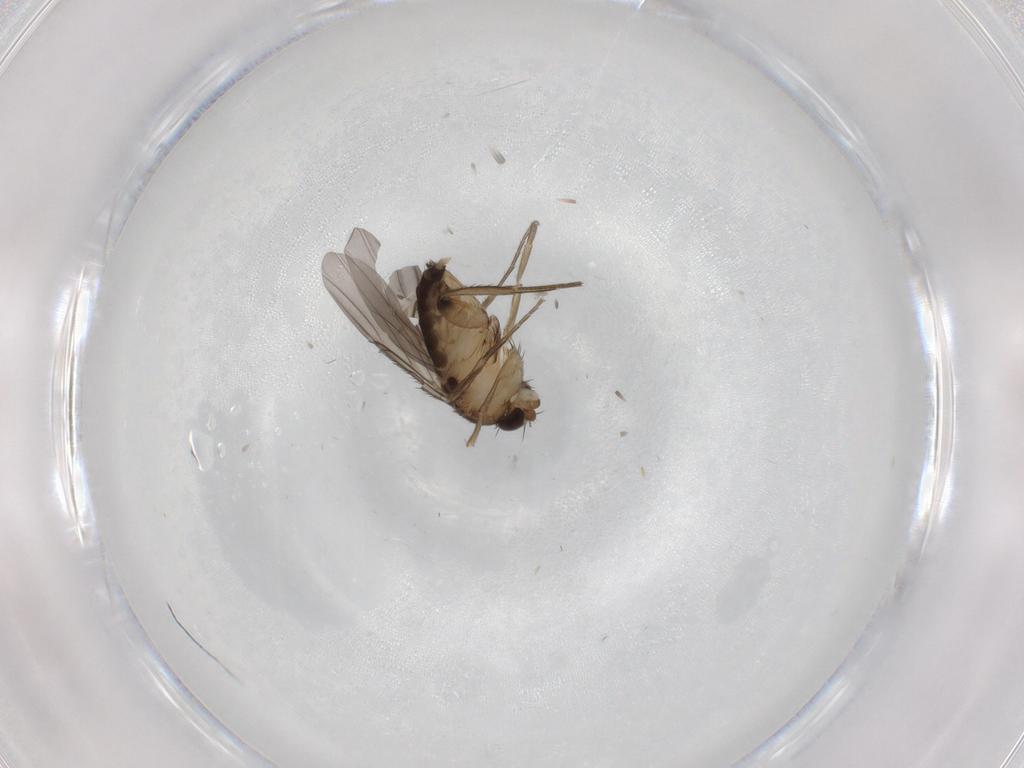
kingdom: Animalia
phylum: Arthropoda
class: Insecta
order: Diptera
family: Phoridae
